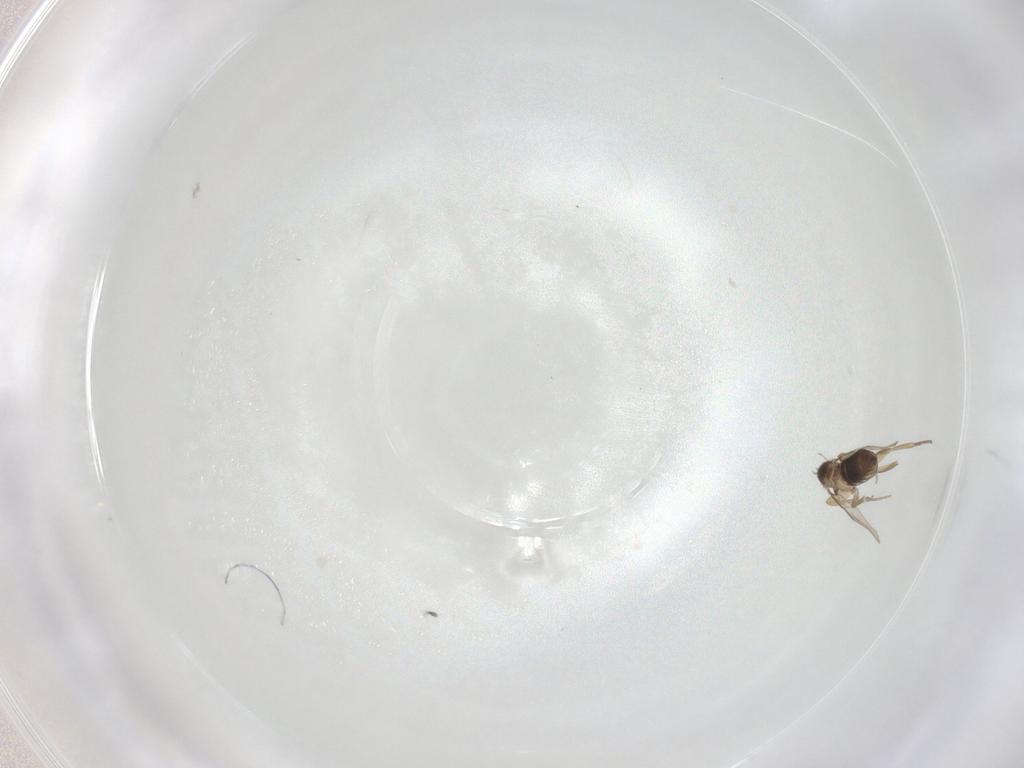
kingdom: Animalia
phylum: Arthropoda
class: Insecta
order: Diptera
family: Phoridae
